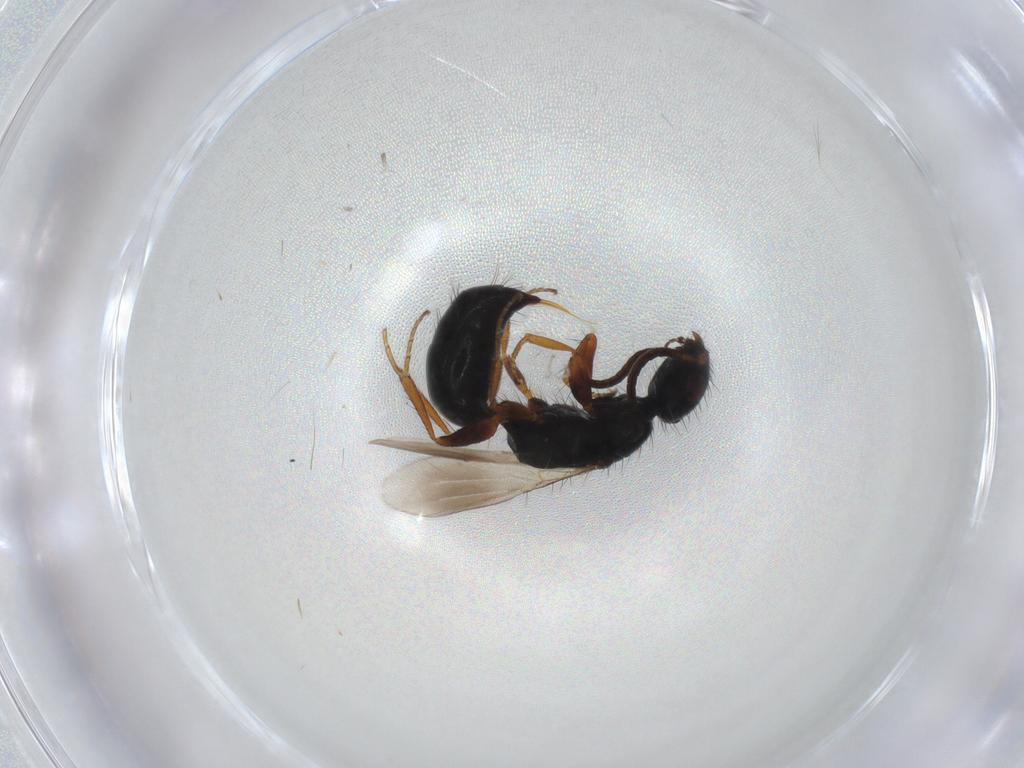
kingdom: Animalia
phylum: Arthropoda
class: Insecta
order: Hymenoptera
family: Bethylidae
